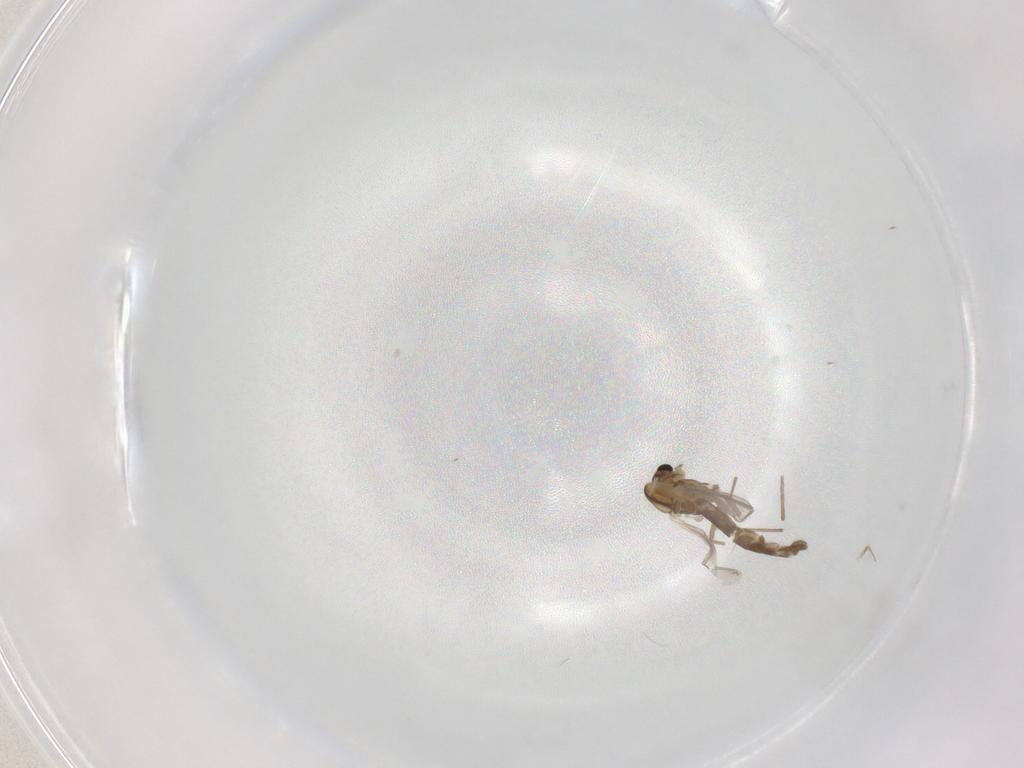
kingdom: Animalia
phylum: Arthropoda
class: Insecta
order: Diptera
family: Chironomidae
